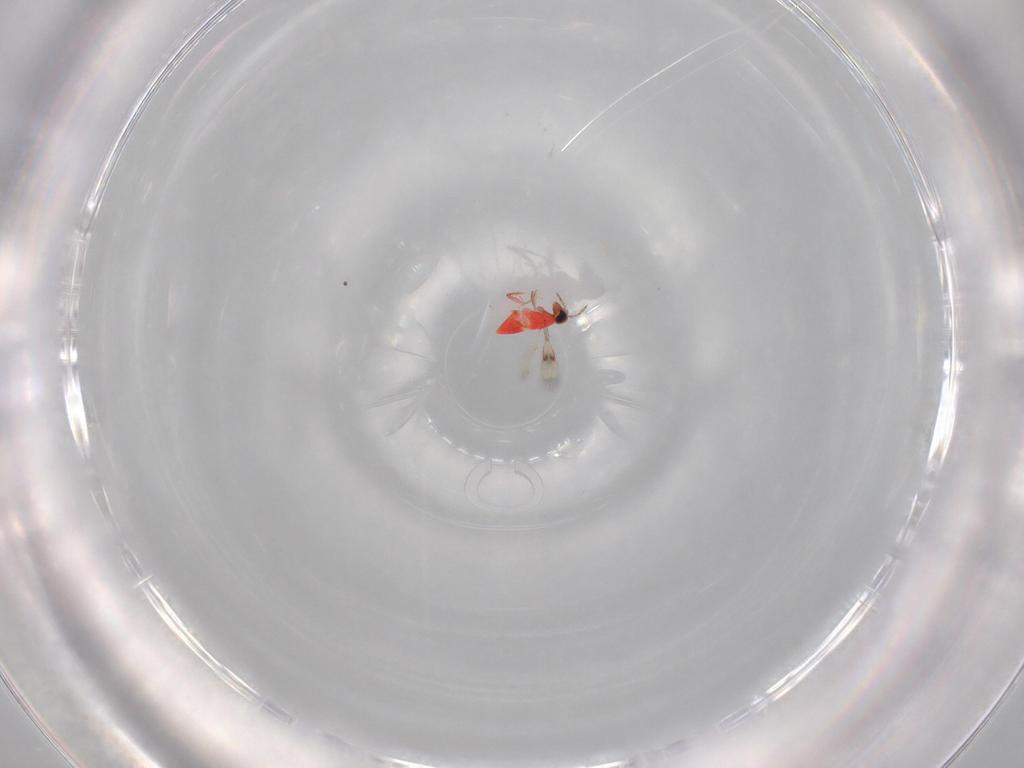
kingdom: Animalia
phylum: Arthropoda
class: Insecta
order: Hymenoptera
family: Trichogrammatidae
